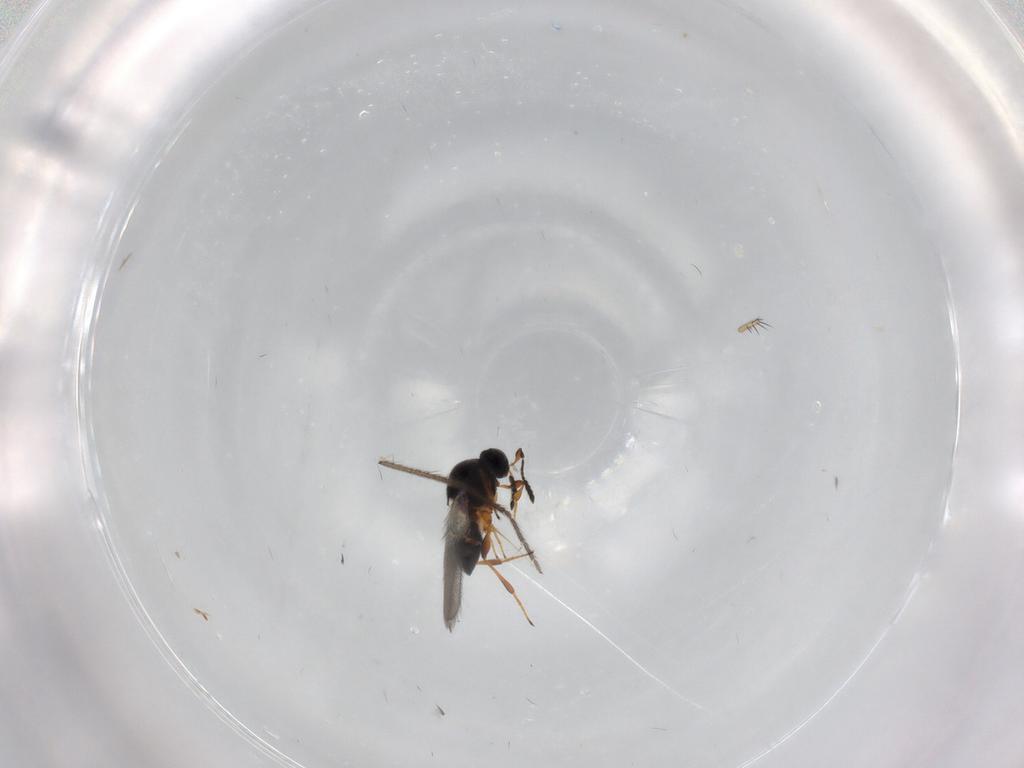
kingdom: Animalia
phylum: Arthropoda
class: Insecta
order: Hymenoptera
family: Platygastridae
